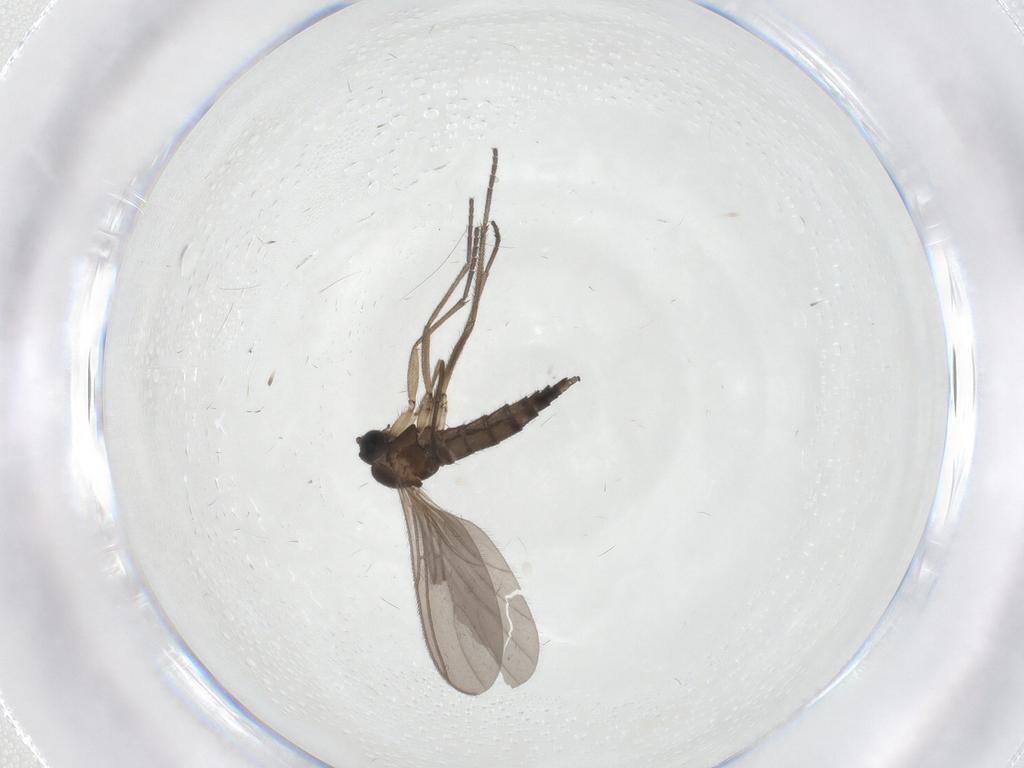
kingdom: Animalia
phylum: Arthropoda
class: Insecta
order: Diptera
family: Sciaridae
